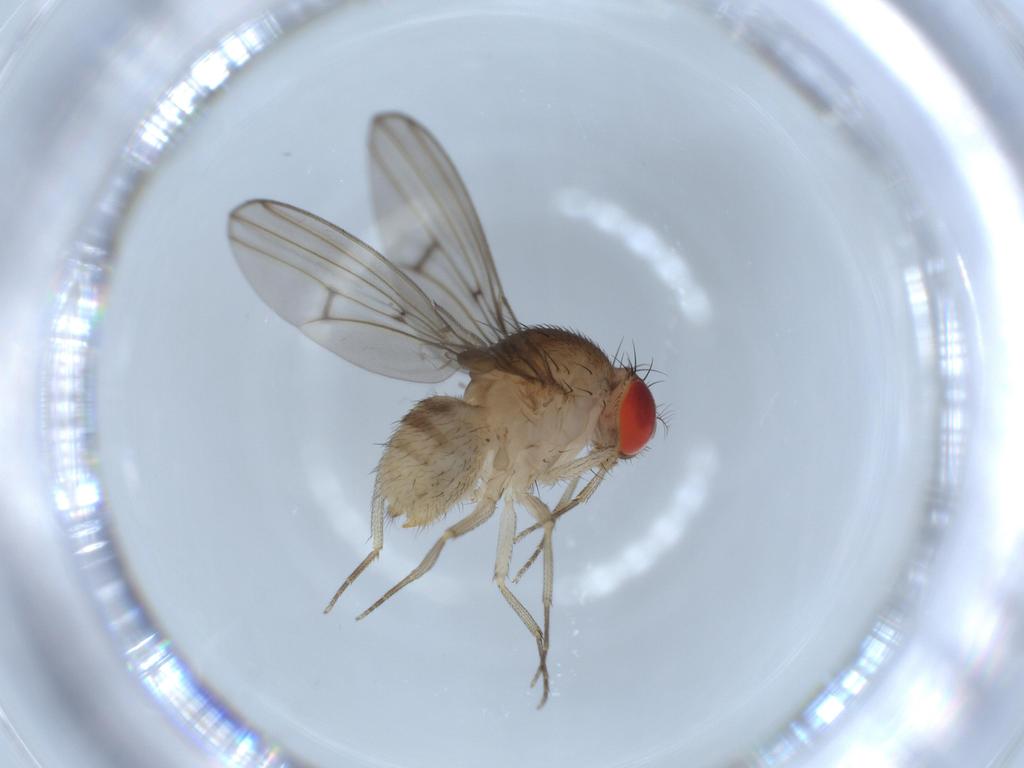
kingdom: Animalia
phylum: Arthropoda
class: Insecta
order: Diptera
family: Drosophilidae
